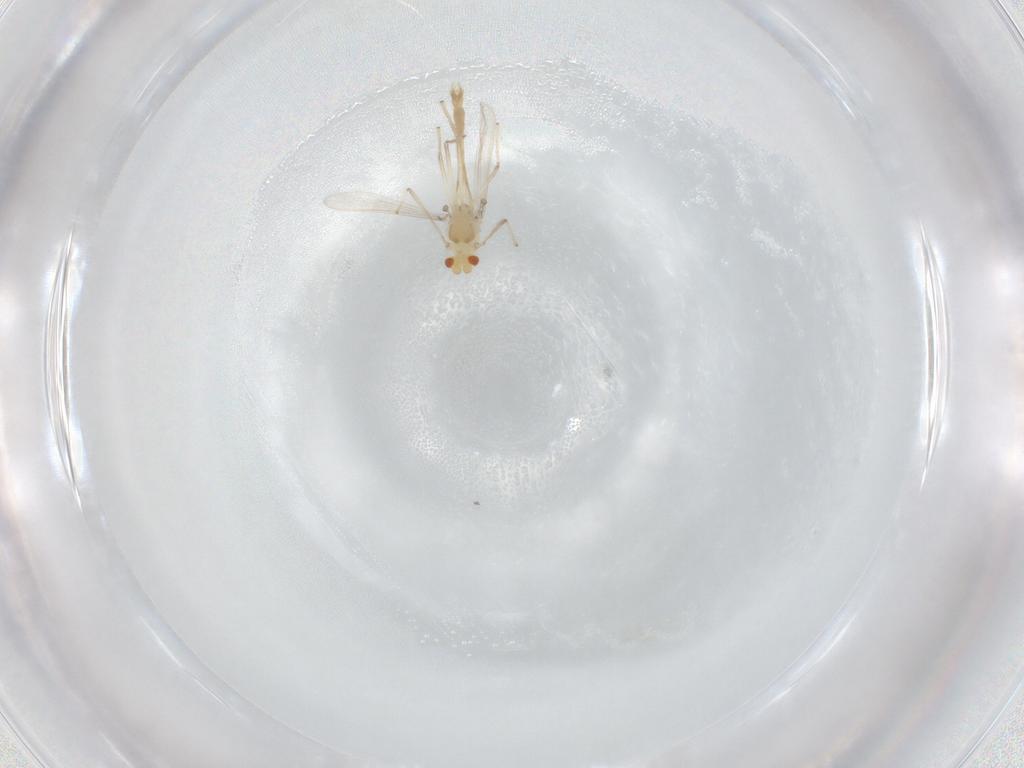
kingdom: Animalia
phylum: Arthropoda
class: Insecta
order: Diptera
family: Chironomidae
